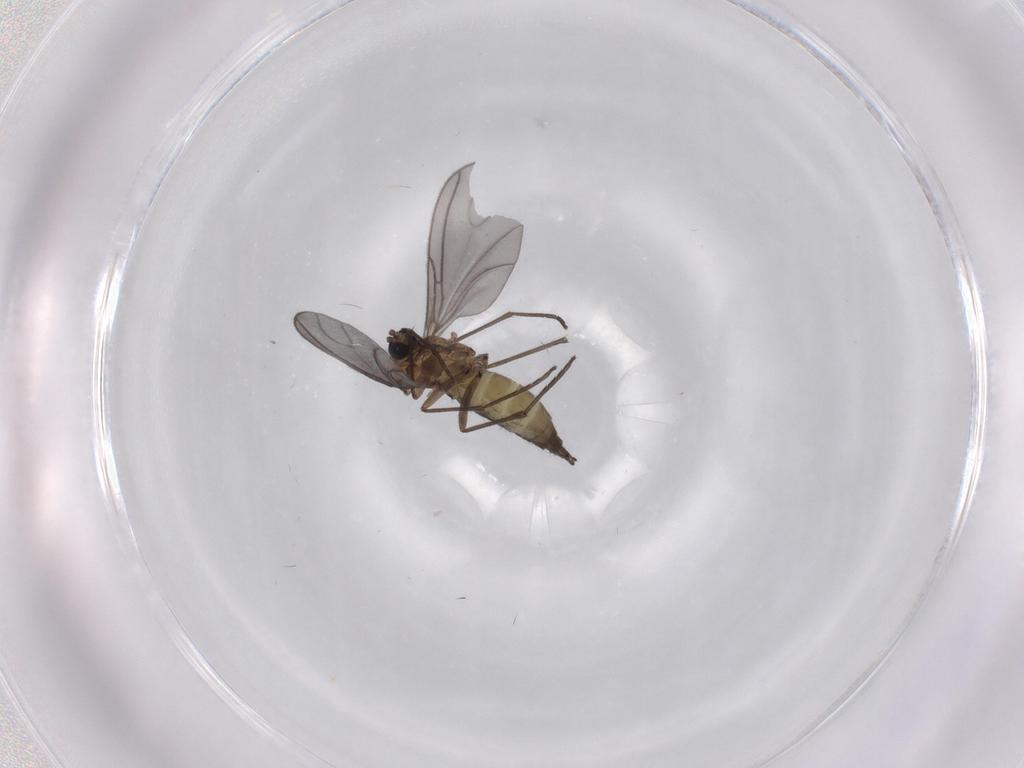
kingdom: Animalia
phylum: Arthropoda
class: Insecta
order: Diptera
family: Sciaridae
